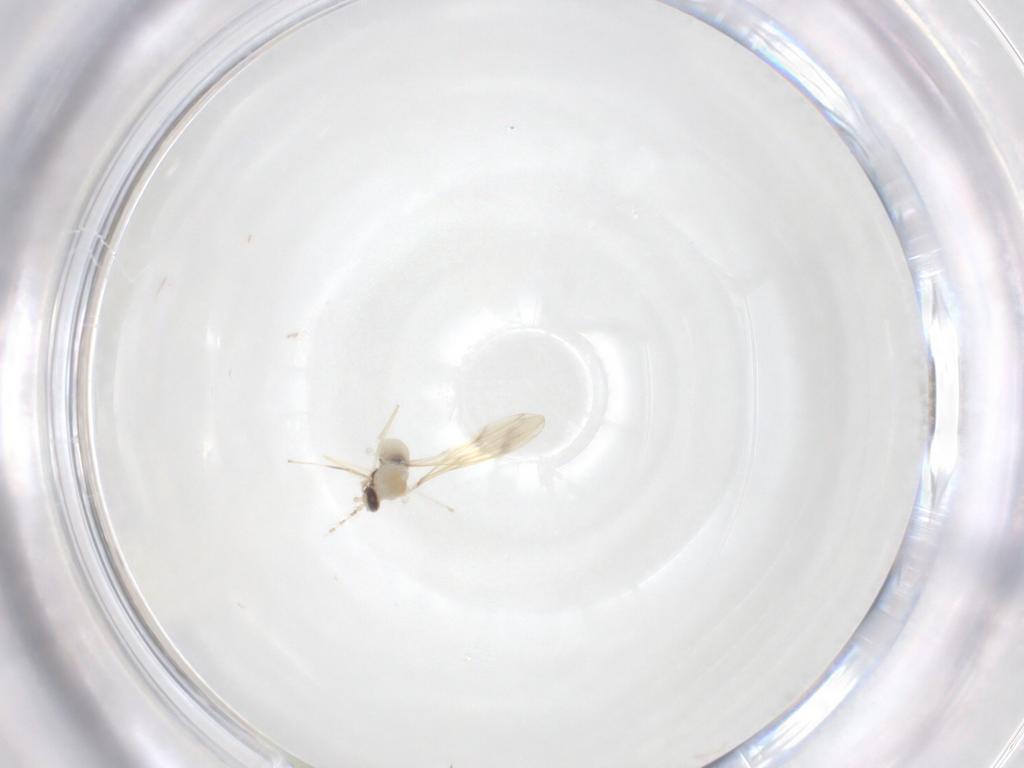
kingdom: Animalia
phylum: Arthropoda
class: Insecta
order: Diptera
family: Cecidomyiidae
